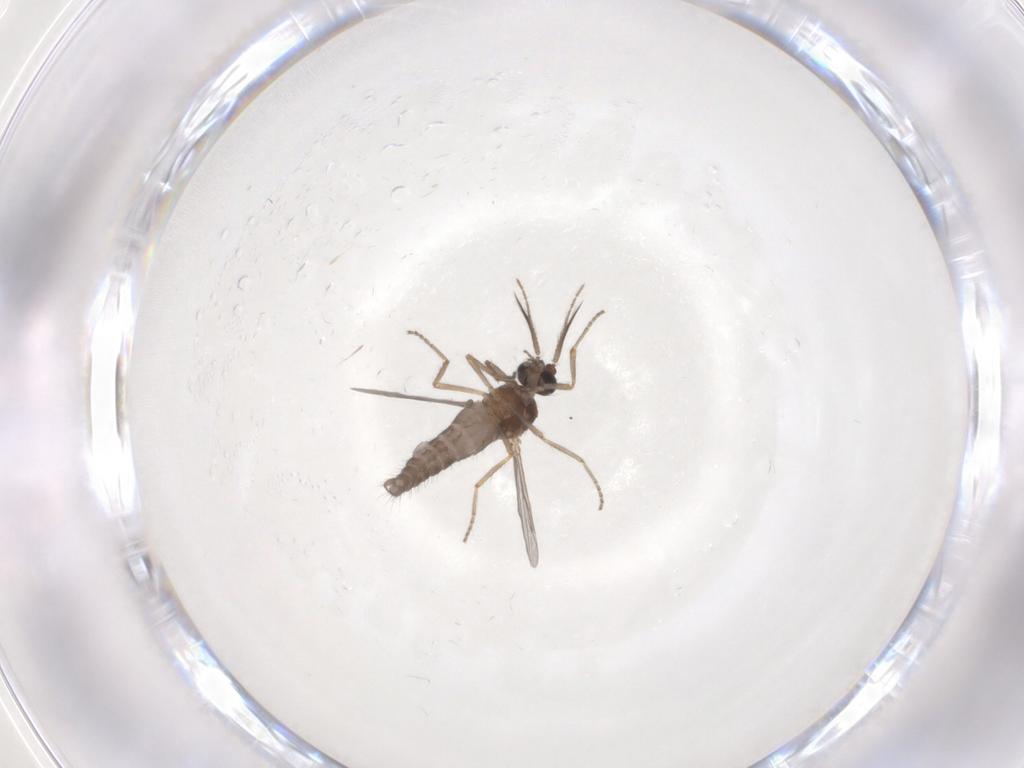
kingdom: Animalia
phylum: Arthropoda
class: Insecta
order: Diptera
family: Ceratopogonidae
